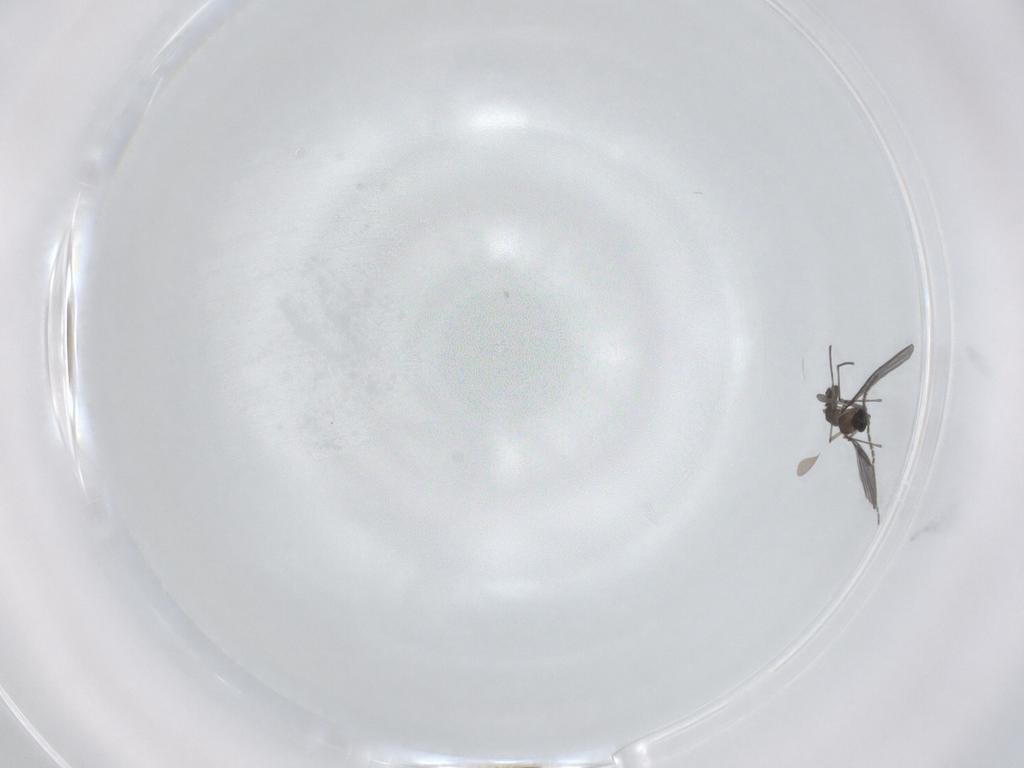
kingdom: Animalia
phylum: Arthropoda
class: Insecta
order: Diptera
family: Sciaridae
